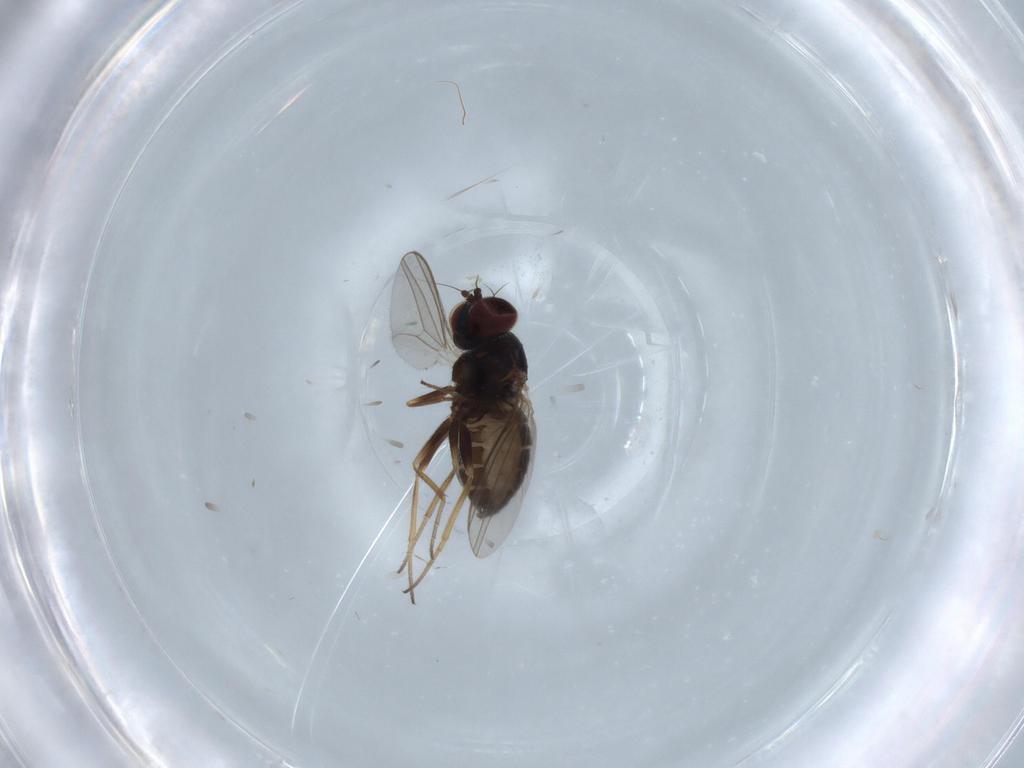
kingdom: Animalia
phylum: Arthropoda
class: Insecta
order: Diptera
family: Dolichopodidae
